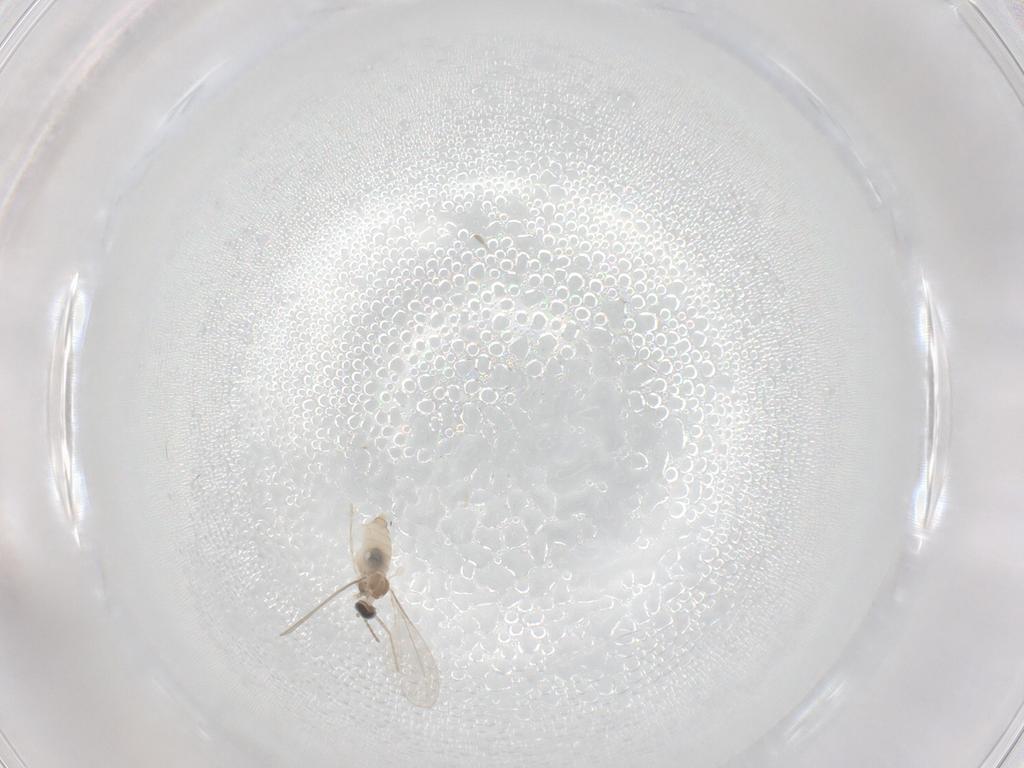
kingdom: Animalia
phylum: Arthropoda
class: Insecta
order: Diptera
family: Cecidomyiidae
